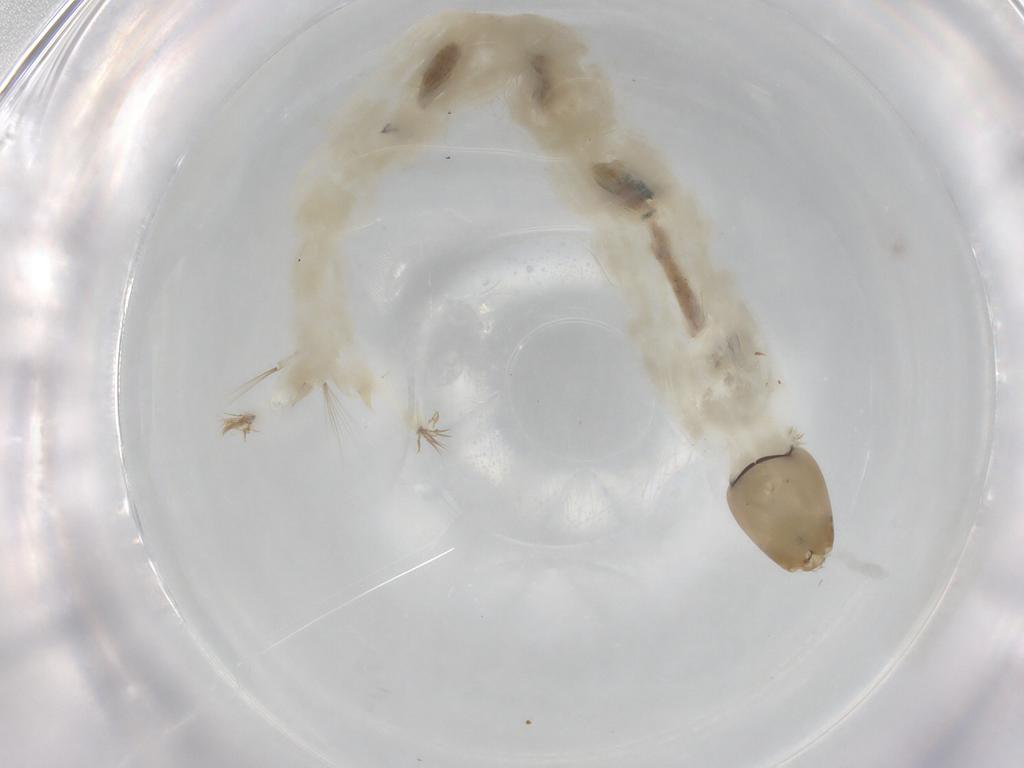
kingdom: Animalia
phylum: Arthropoda
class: Insecta
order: Diptera
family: Chironomidae
